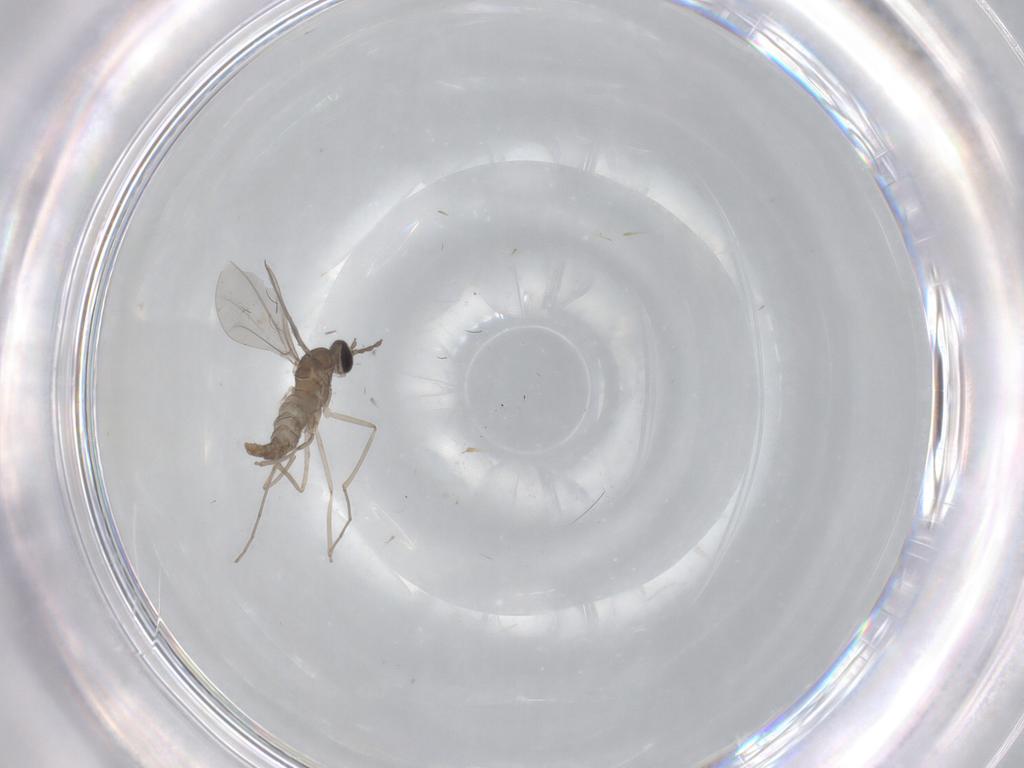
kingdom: Animalia
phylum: Arthropoda
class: Insecta
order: Diptera
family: Cecidomyiidae
